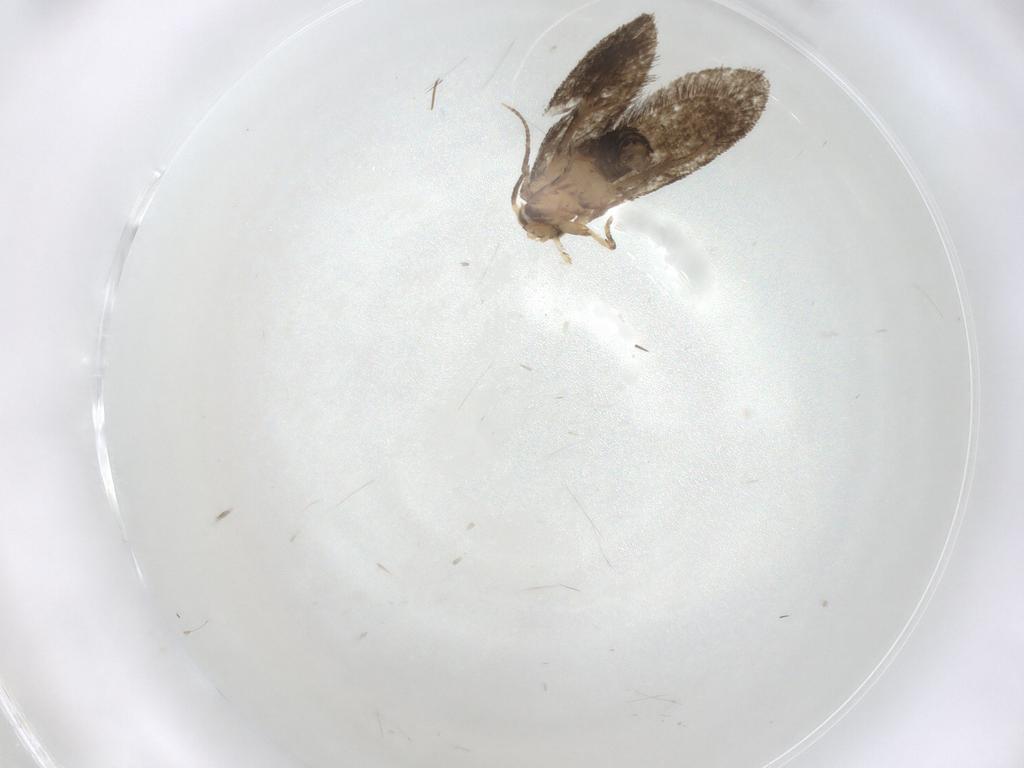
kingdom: Animalia
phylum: Arthropoda
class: Insecta
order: Lepidoptera
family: Tineidae
